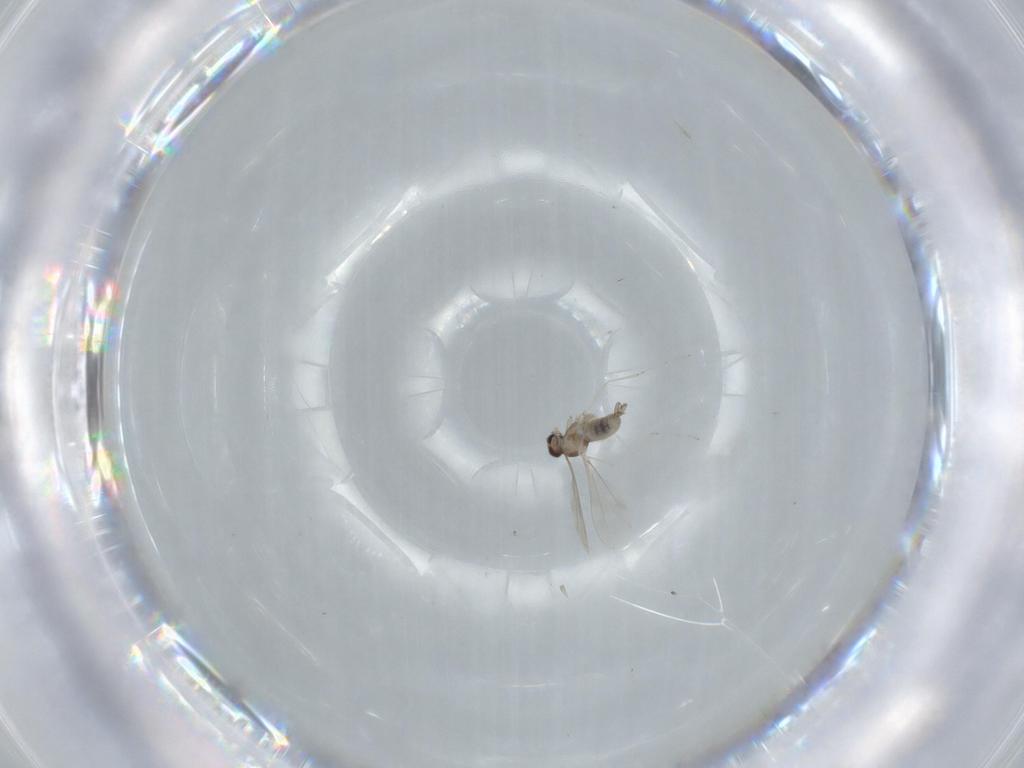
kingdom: Animalia
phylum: Arthropoda
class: Insecta
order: Diptera
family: Cecidomyiidae
